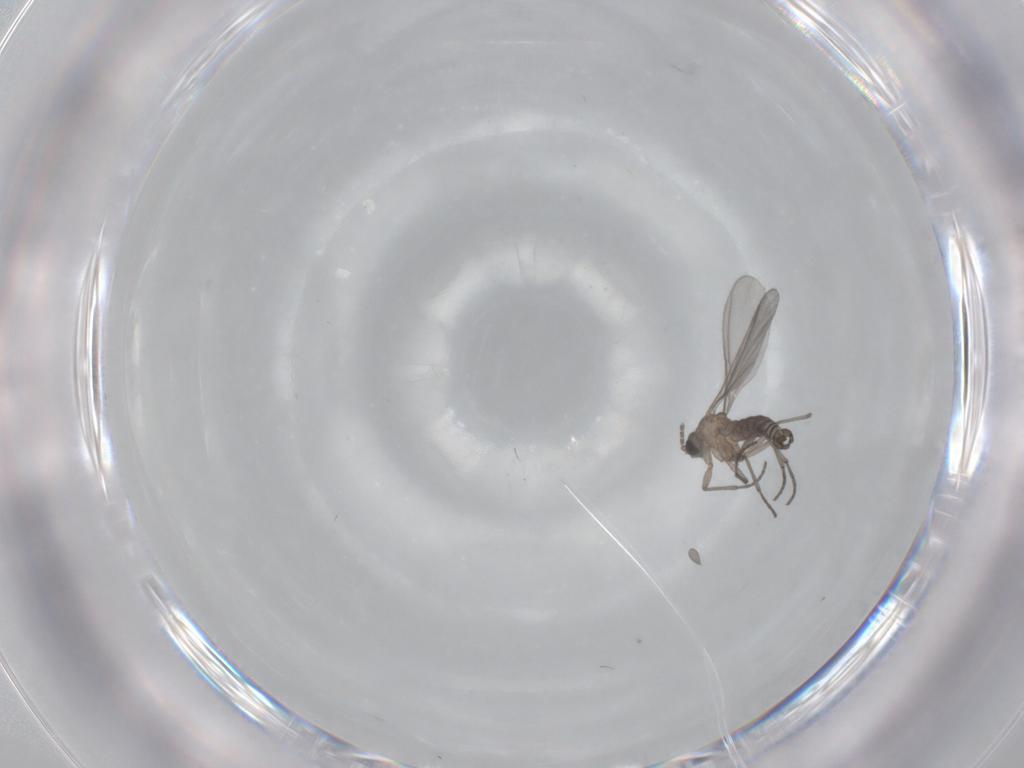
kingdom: Animalia
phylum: Arthropoda
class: Insecta
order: Diptera
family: Sciaridae
